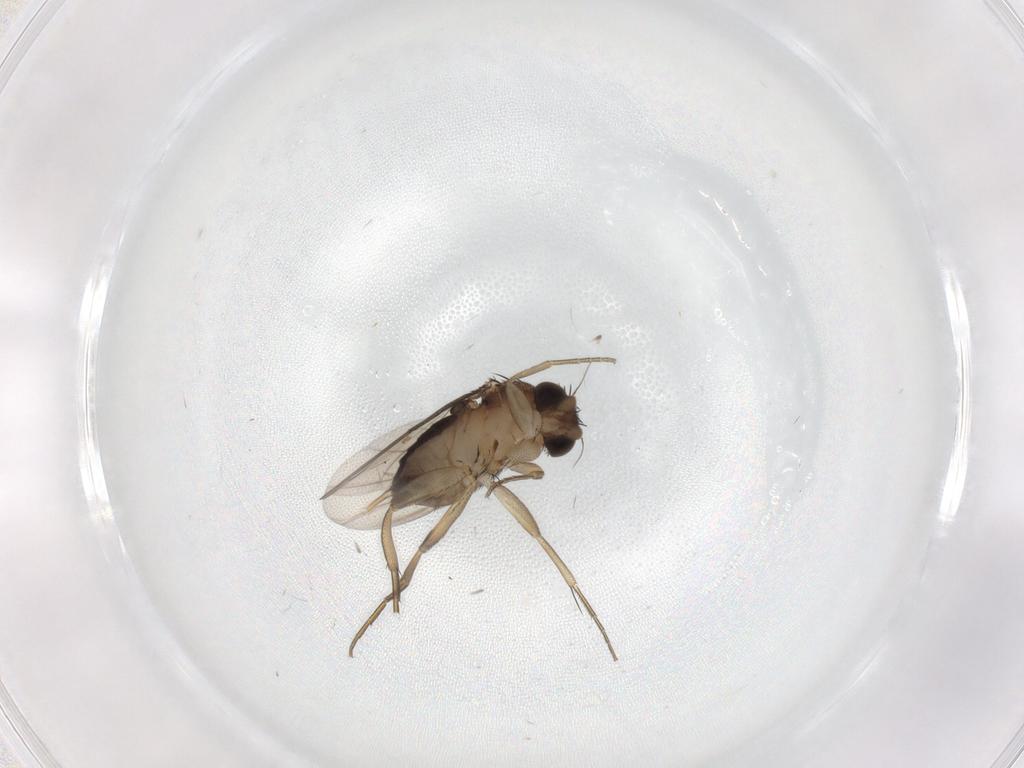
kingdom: Animalia
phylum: Arthropoda
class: Insecta
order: Diptera
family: Phoridae
